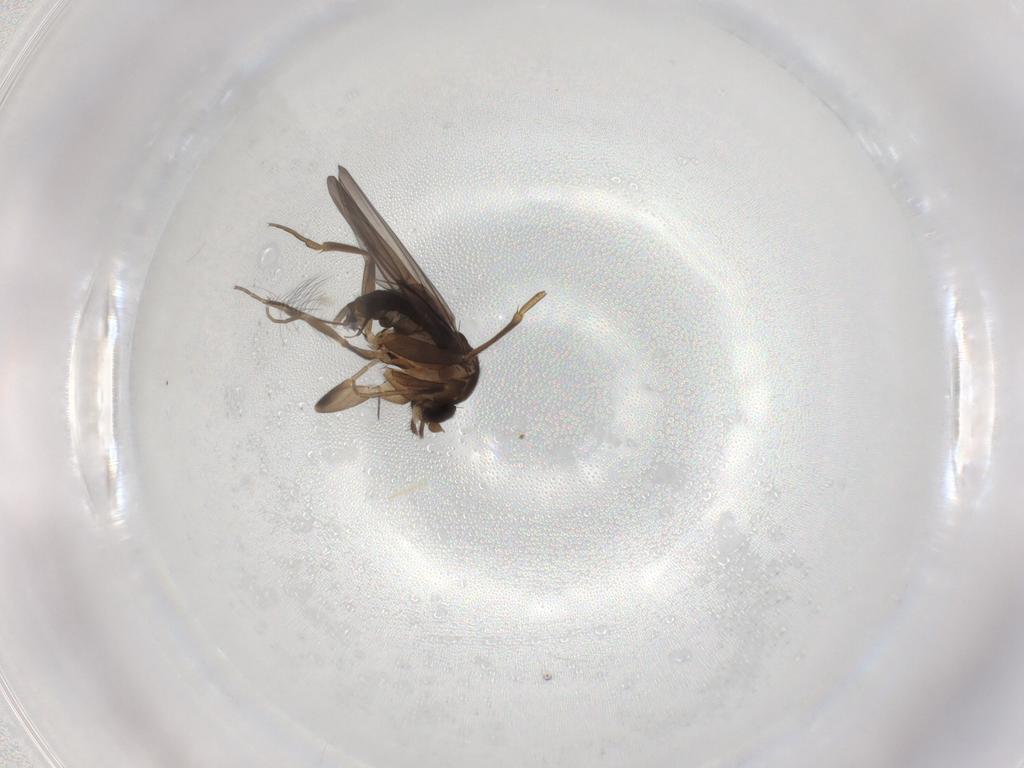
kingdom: Animalia
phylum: Arthropoda
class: Insecta
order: Diptera
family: Phoridae
